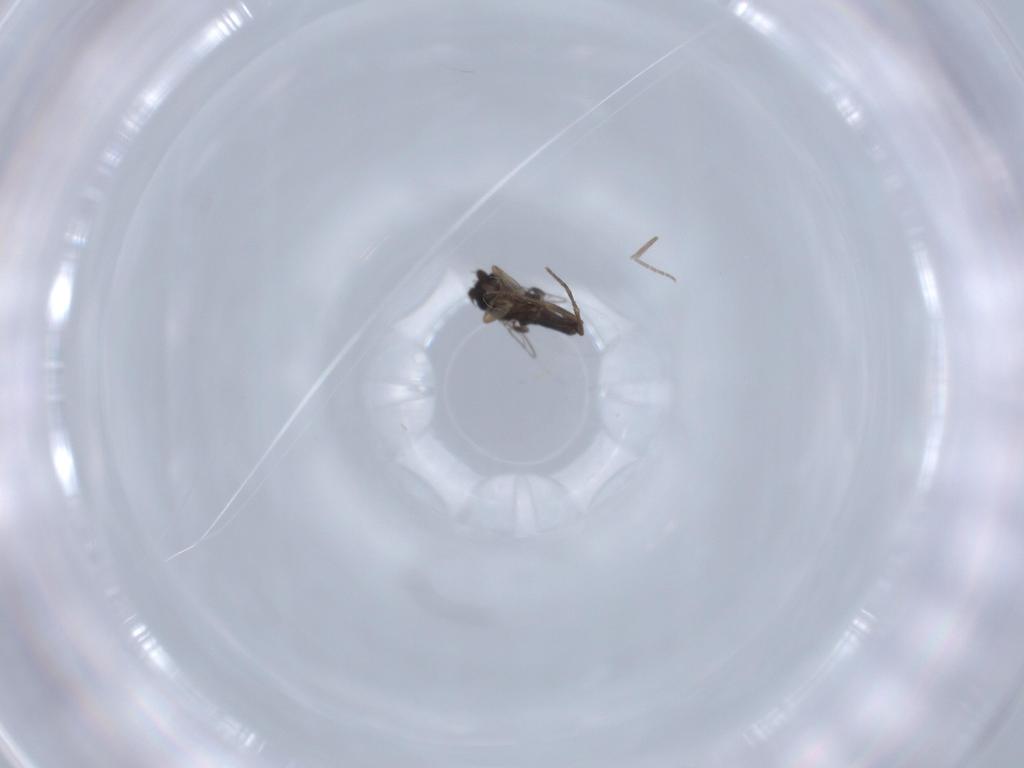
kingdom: Animalia
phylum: Arthropoda
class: Insecta
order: Diptera
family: Phoridae
